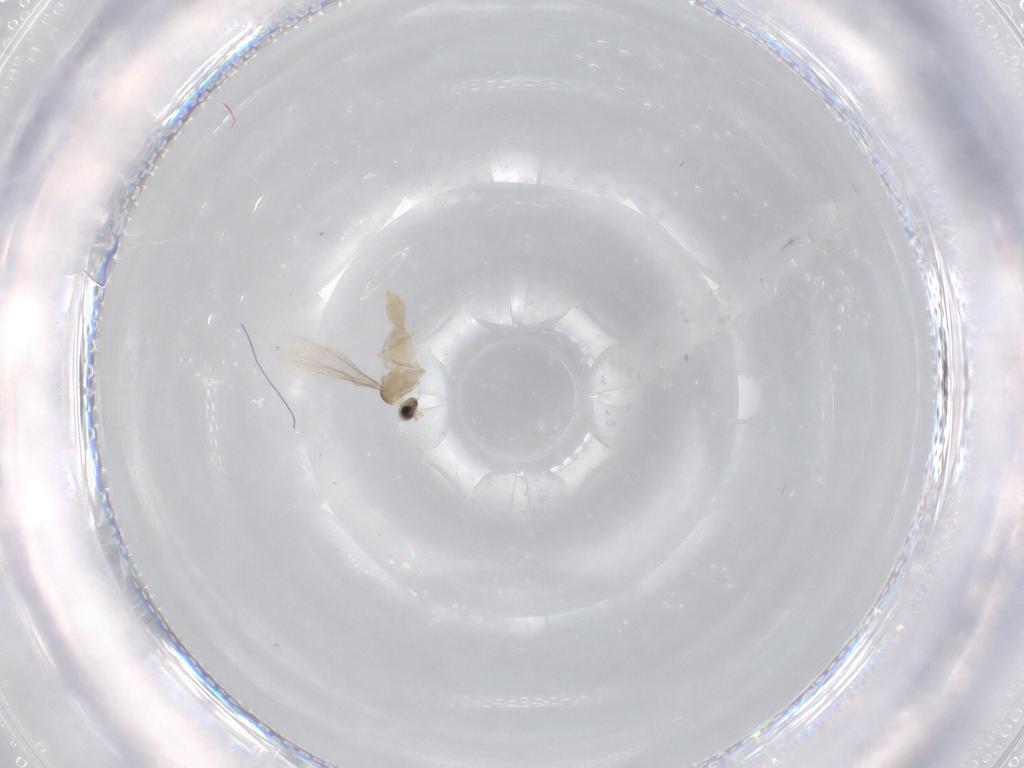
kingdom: Animalia
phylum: Arthropoda
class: Insecta
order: Diptera
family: Cecidomyiidae
